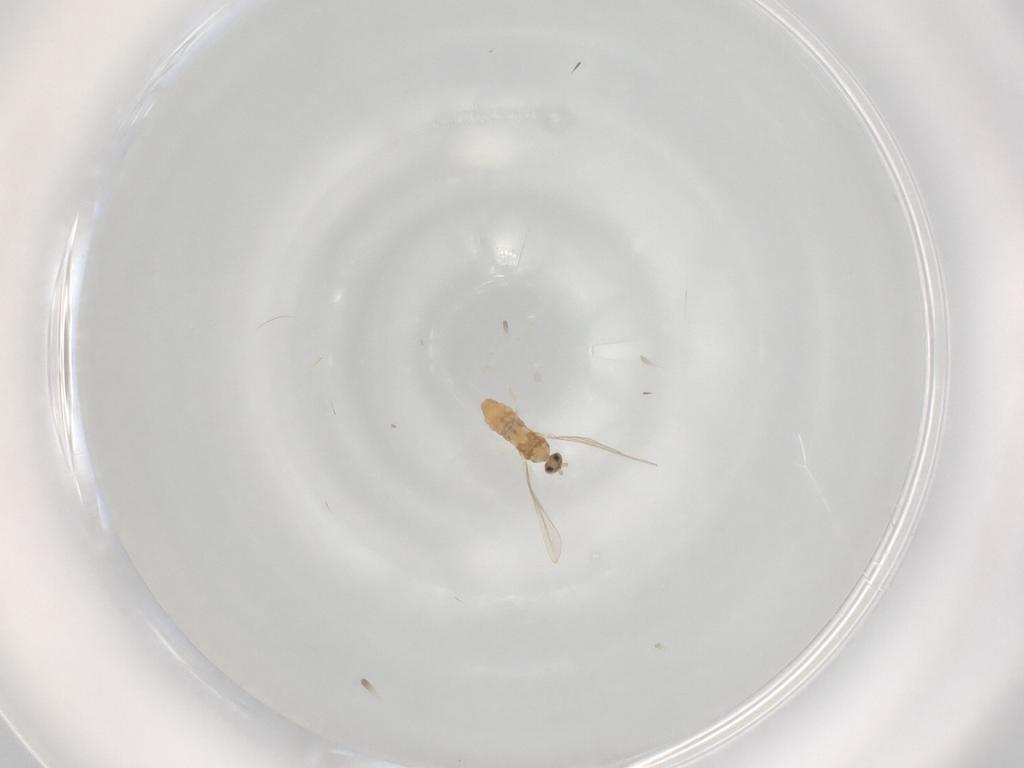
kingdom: Animalia
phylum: Arthropoda
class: Insecta
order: Diptera
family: Cecidomyiidae
